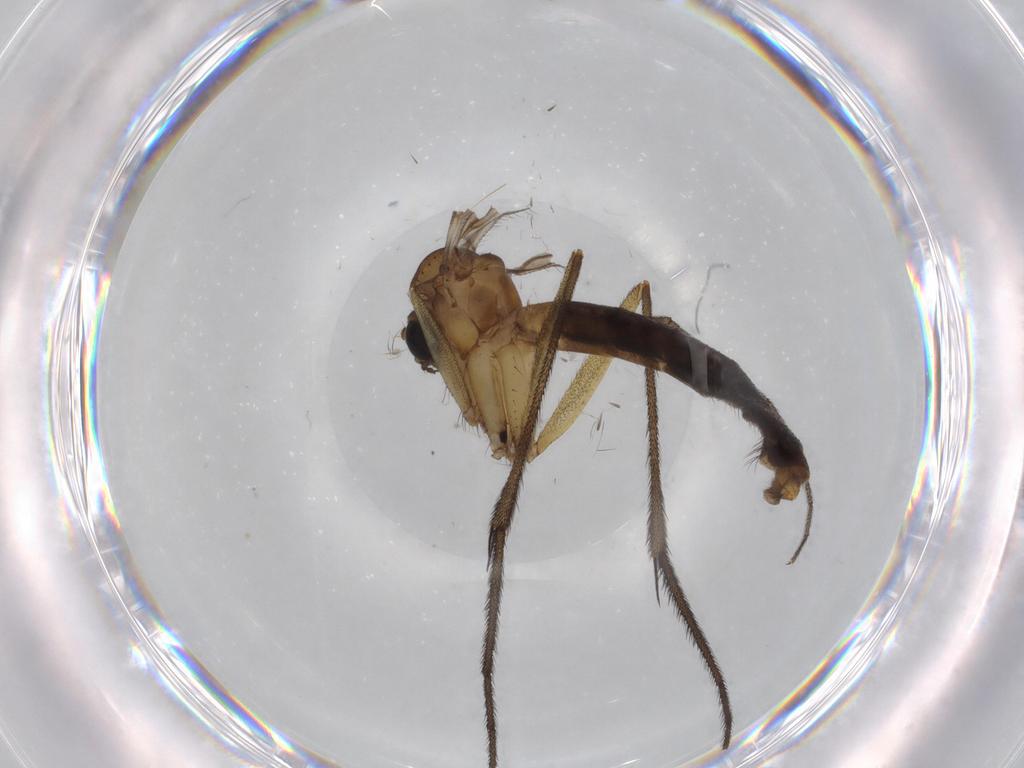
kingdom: Animalia
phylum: Arthropoda
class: Insecta
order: Diptera
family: Ditomyiidae
